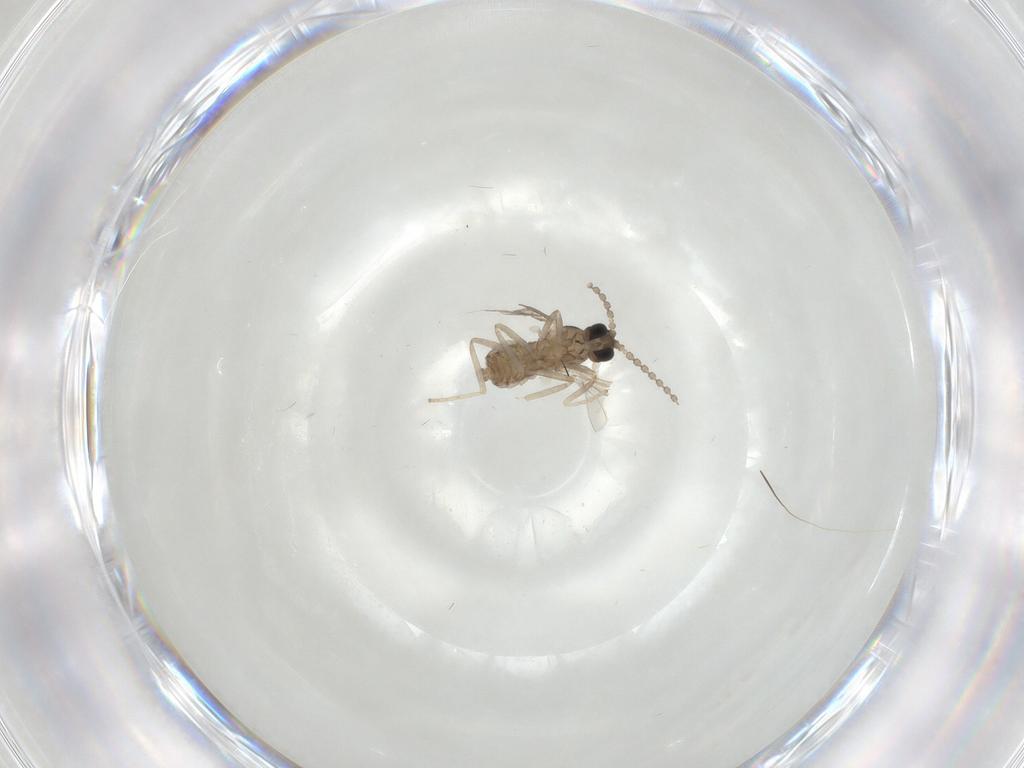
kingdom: Animalia
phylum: Arthropoda
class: Insecta
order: Diptera
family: Cecidomyiidae
